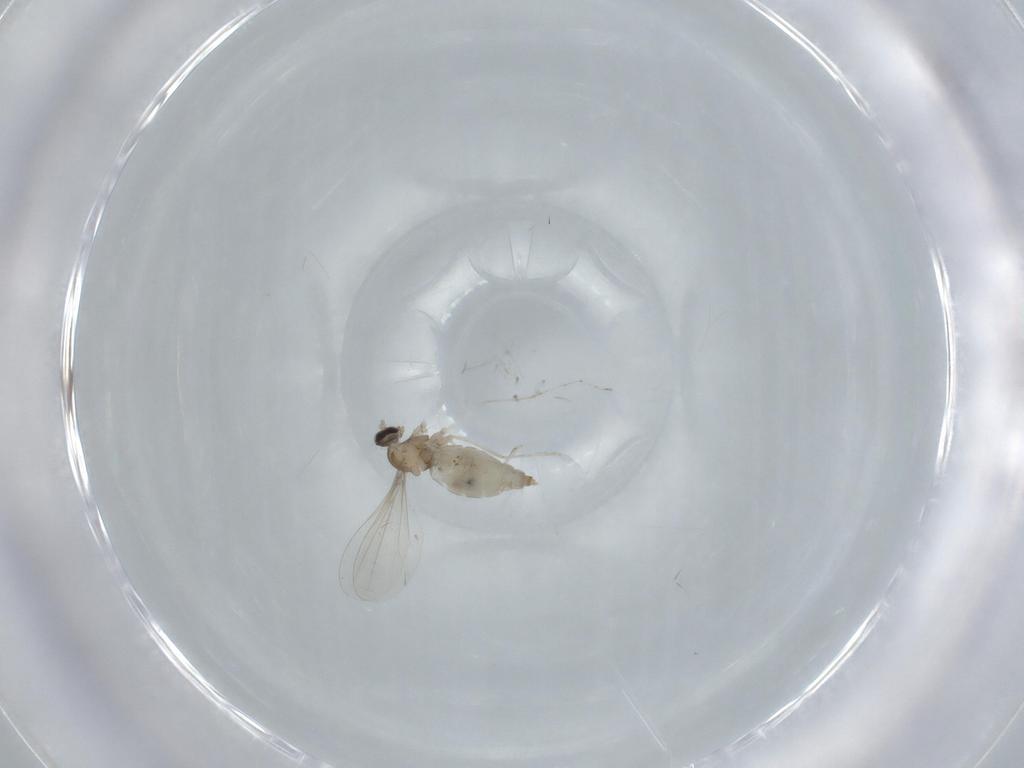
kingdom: Animalia
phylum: Arthropoda
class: Insecta
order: Diptera
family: Cecidomyiidae
